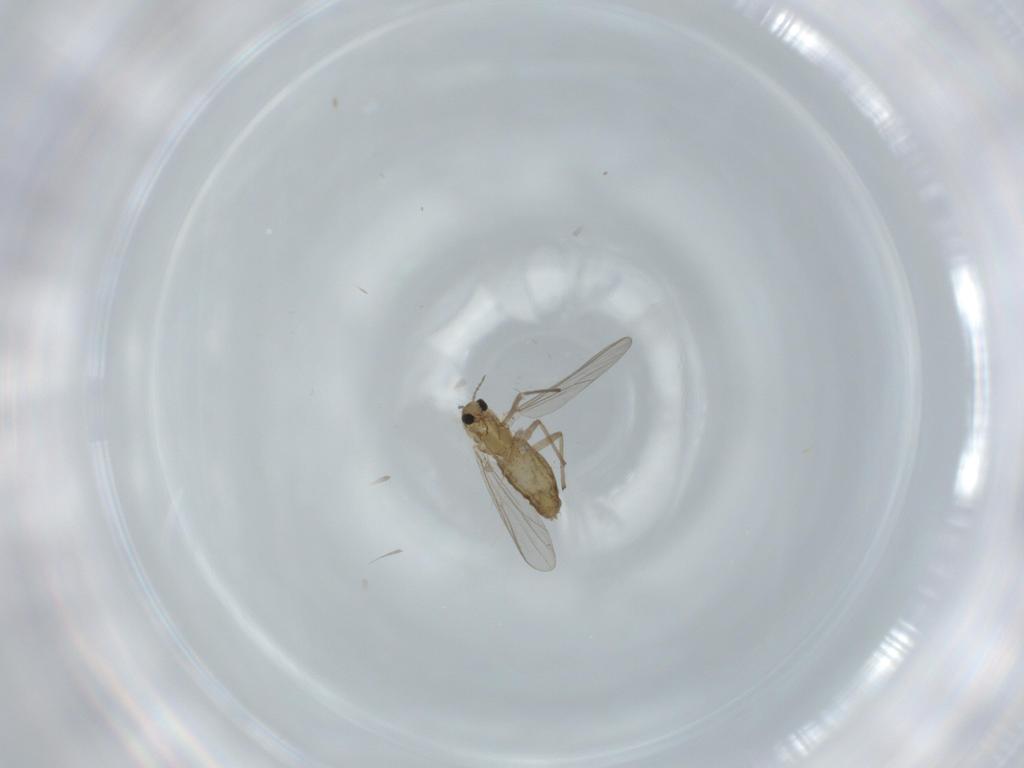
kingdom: Animalia
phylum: Arthropoda
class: Insecta
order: Diptera
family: Chironomidae
